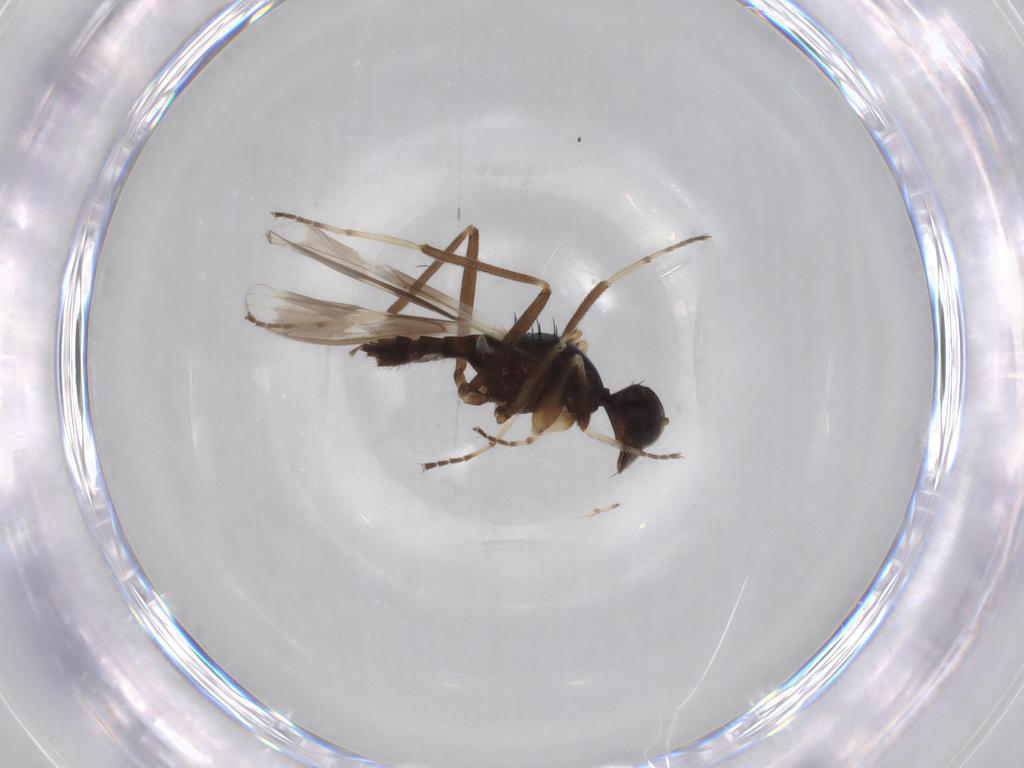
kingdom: Animalia
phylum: Arthropoda
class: Insecta
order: Diptera
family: Hybotidae
